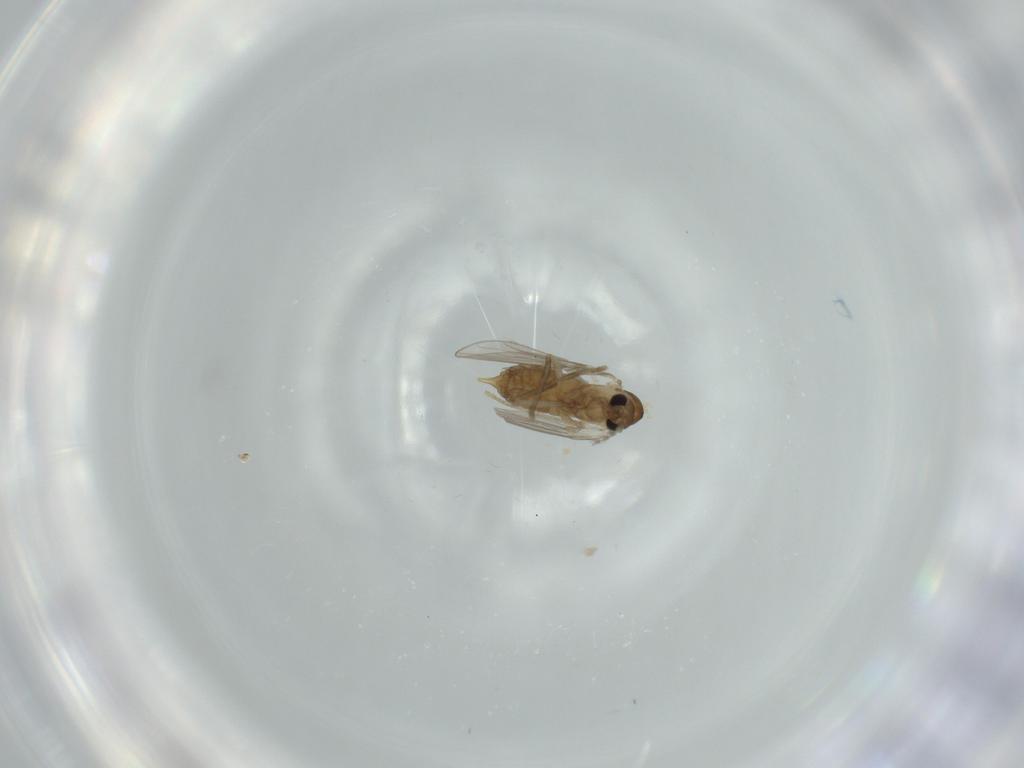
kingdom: Animalia
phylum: Arthropoda
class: Insecta
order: Diptera
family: Psychodidae
